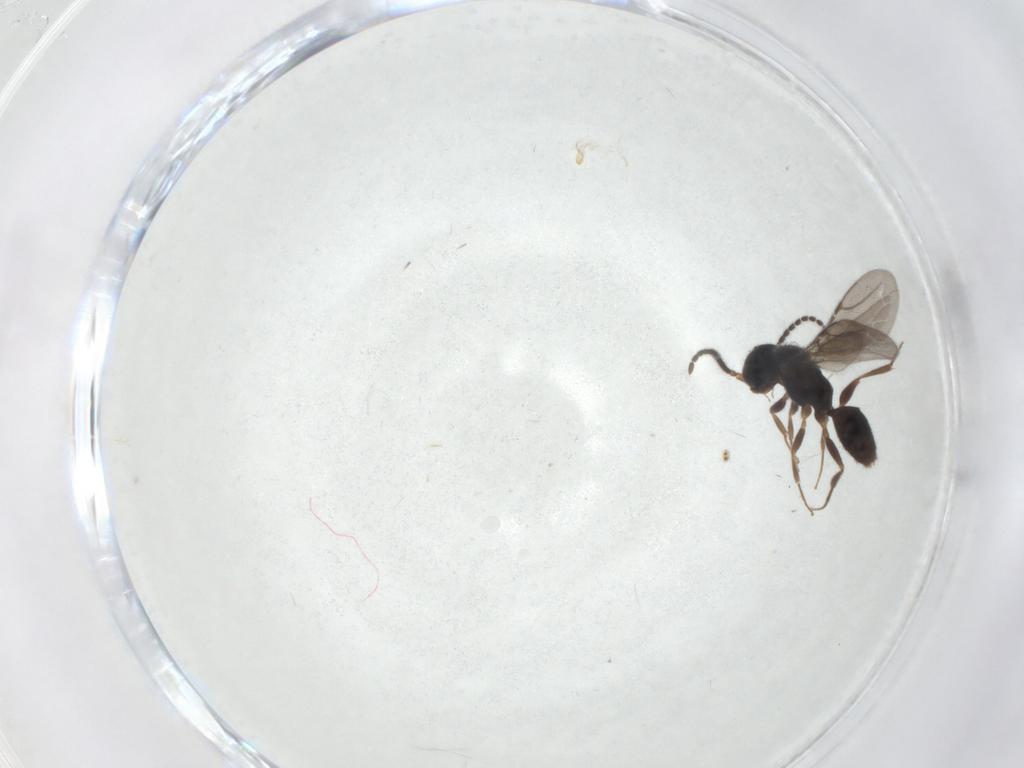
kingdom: Animalia
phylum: Arthropoda
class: Insecta
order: Hymenoptera
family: Bethylidae
